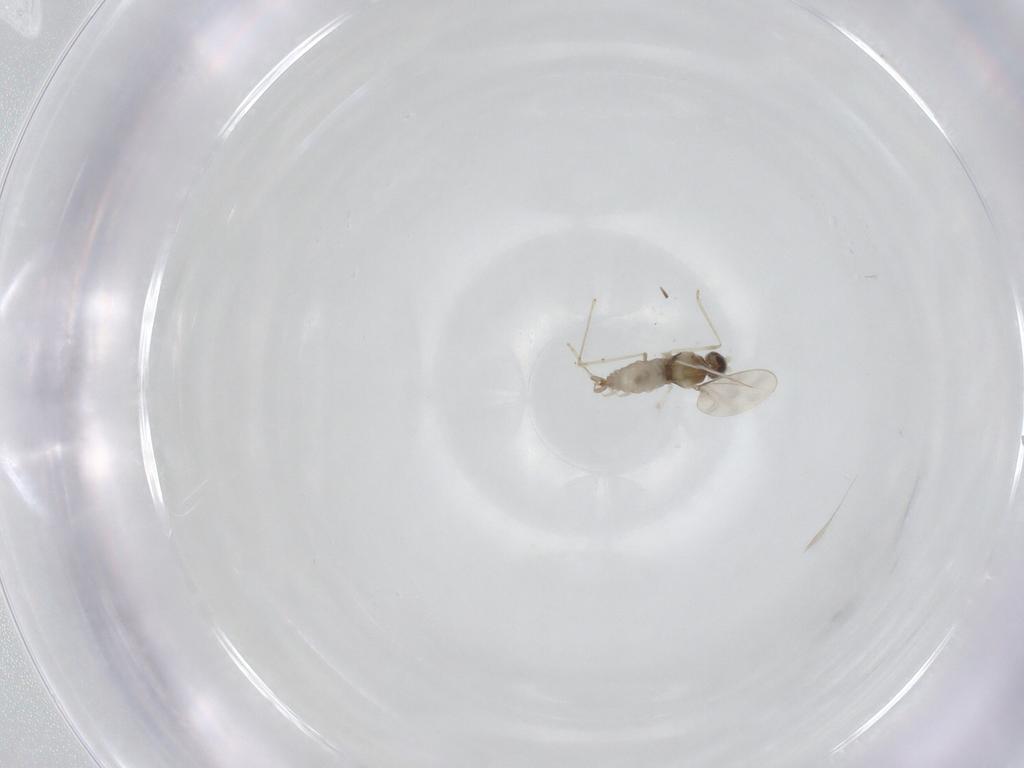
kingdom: Animalia
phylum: Arthropoda
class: Insecta
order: Diptera
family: Cecidomyiidae
